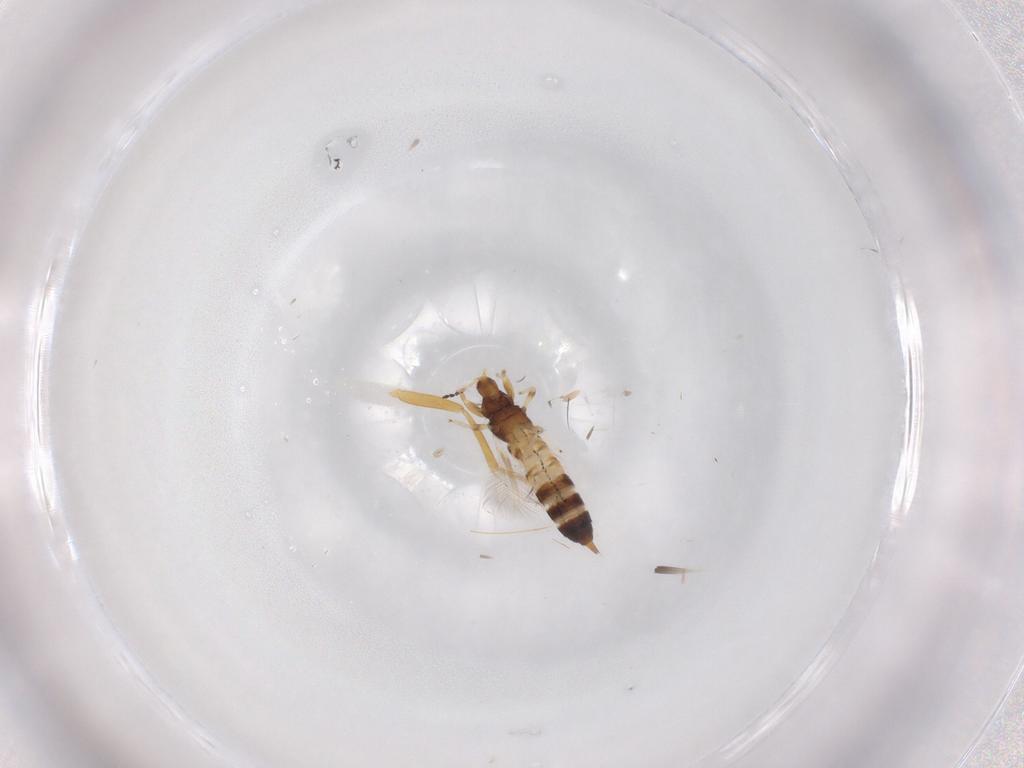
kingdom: Animalia
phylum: Arthropoda
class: Insecta
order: Thysanoptera
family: Phlaeothripidae
